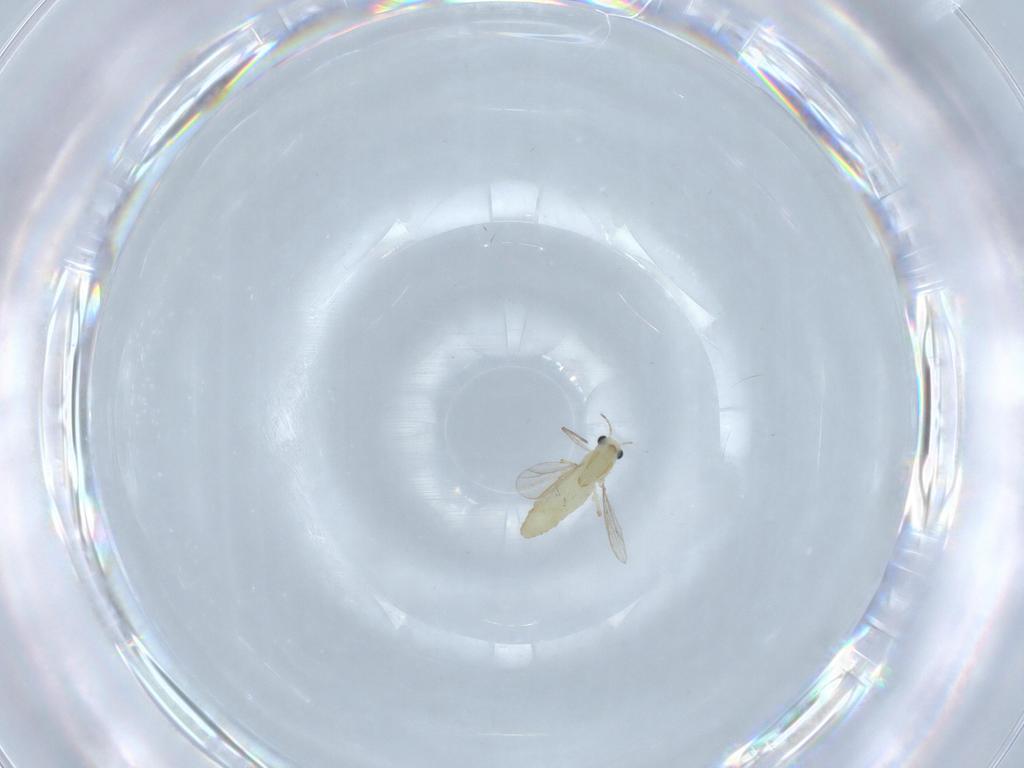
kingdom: Animalia
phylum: Arthropoda
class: Insecta
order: Diptera
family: Chironomidae
